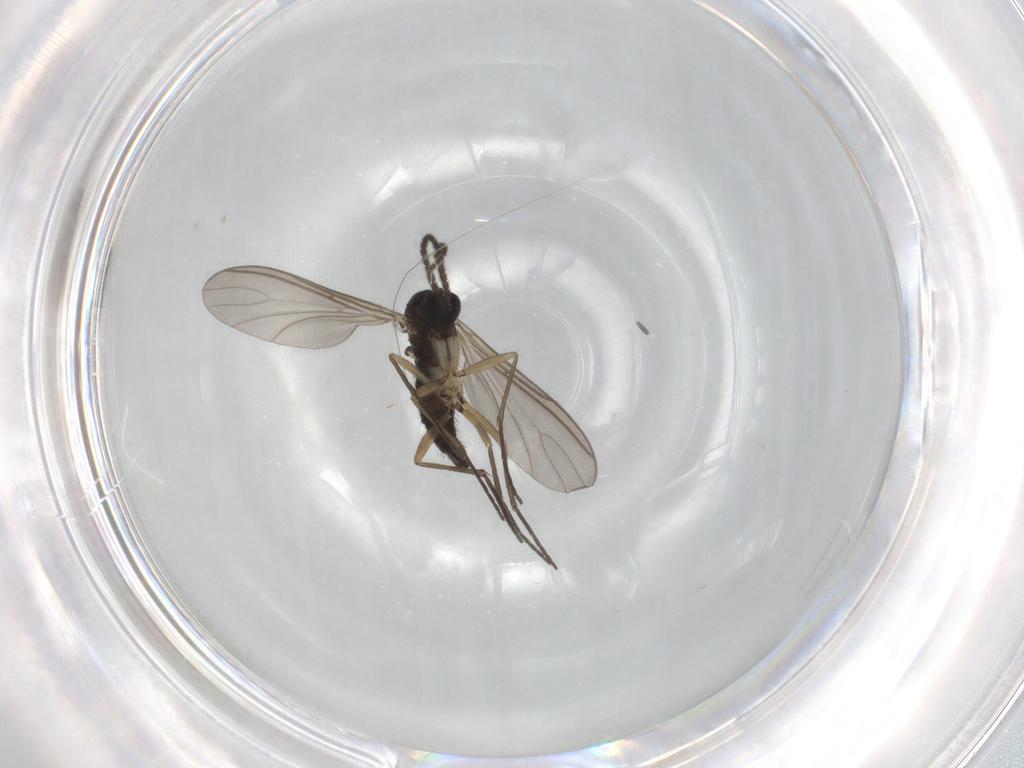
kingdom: Animalia
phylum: Arthropoda
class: Insecta
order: Diptera
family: Sciaridae
